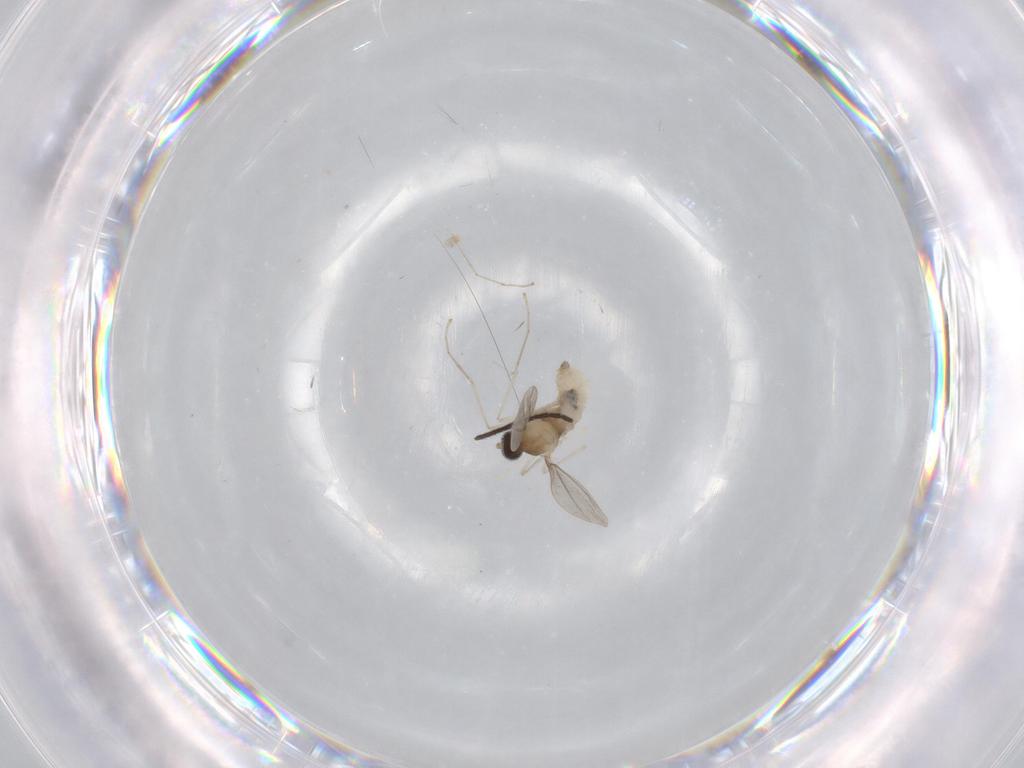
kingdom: Animalia
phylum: Arthropoda
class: Insecta
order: Diptera
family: Cecidomyiidae
